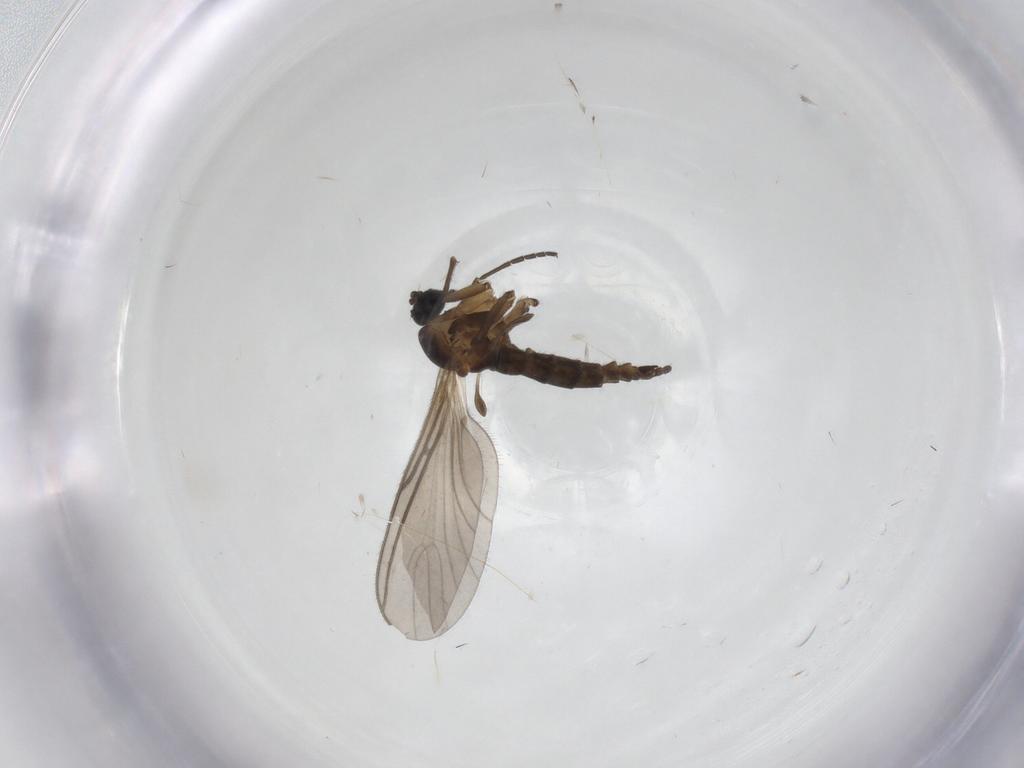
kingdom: Animalia
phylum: Arthropoda
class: Insecta
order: Diptera
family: Sciaridae
